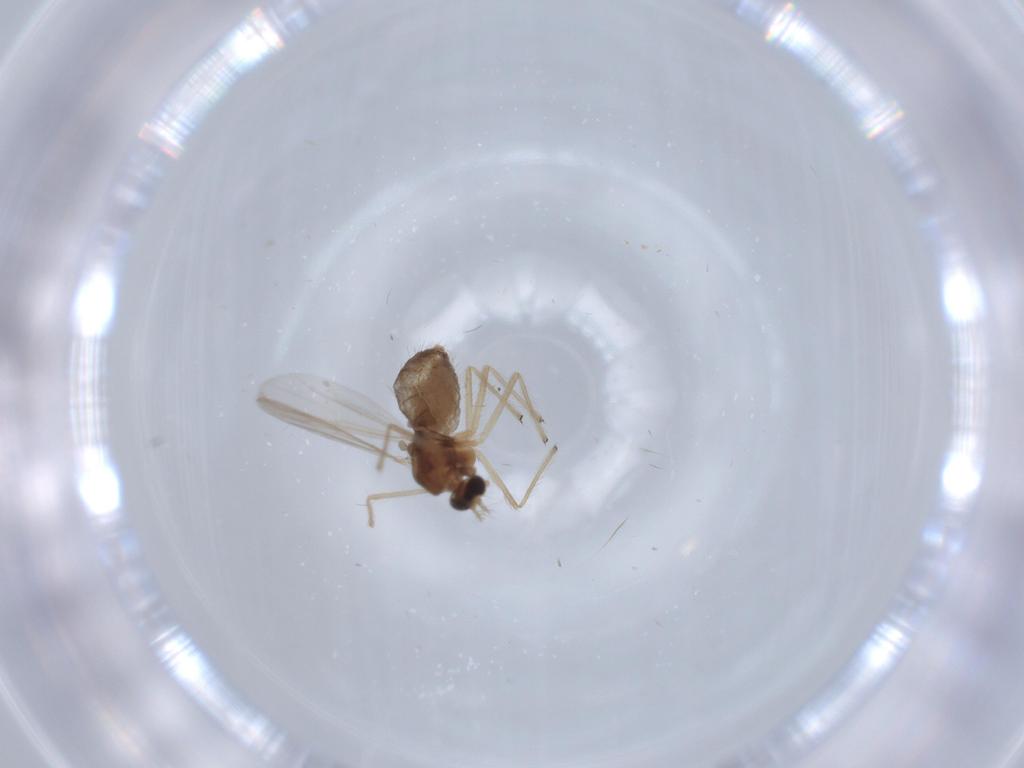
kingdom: Animalia
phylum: Arthropoda
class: Insecta
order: Diptera
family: Chironomidae
